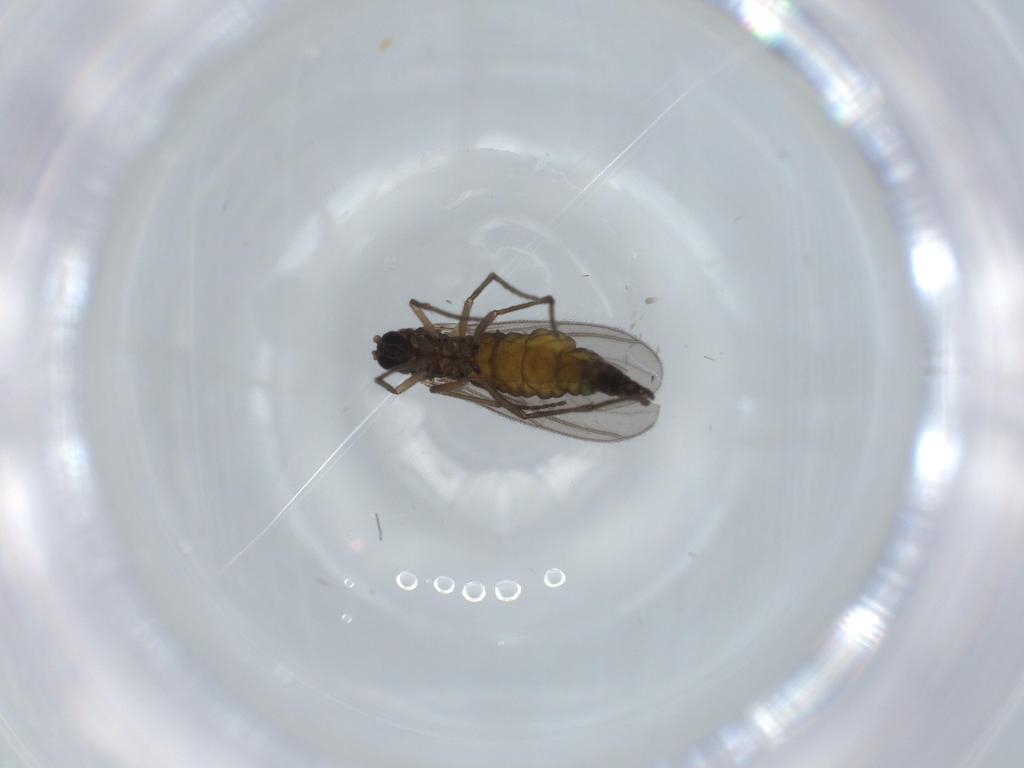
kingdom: Animalia
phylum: Arthropoda
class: Insecta
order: Diptera
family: Sciaridae
